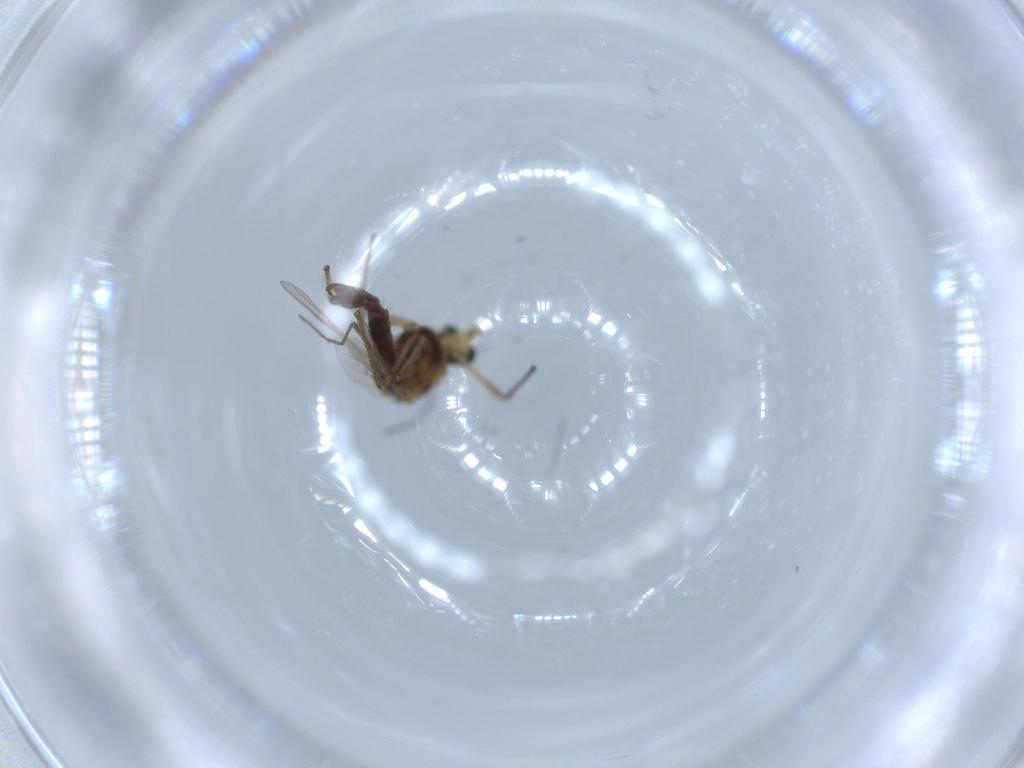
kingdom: Animalia
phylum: Arthropoda
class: Insecta
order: Diptera
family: Chironomidae
